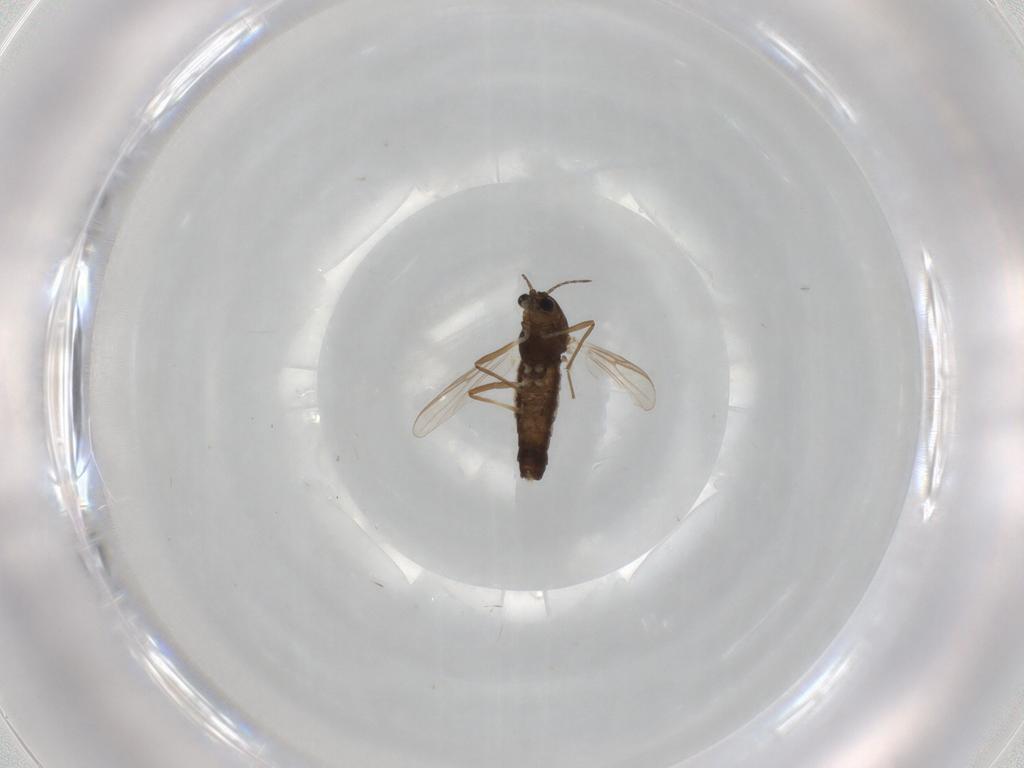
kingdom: Animalia
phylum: Arthropoda
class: Insecta
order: Diptera
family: Chironomidae
